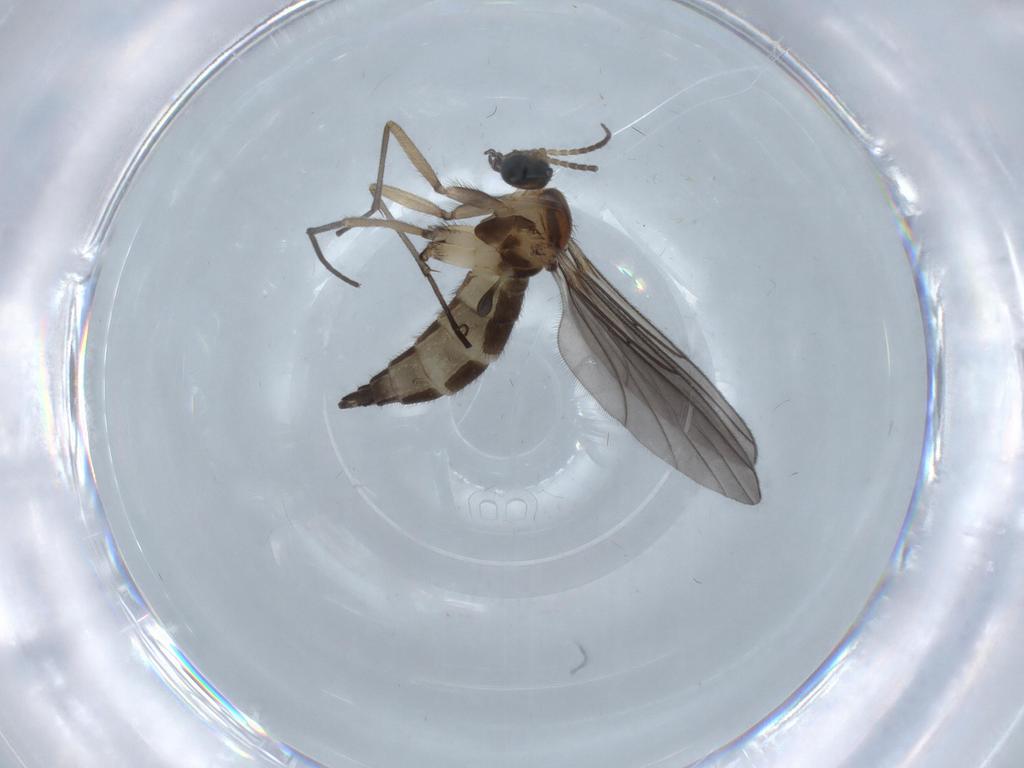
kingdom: Animalia
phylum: Arthropoda
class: Insecta
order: Diptera
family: Sciaridae
